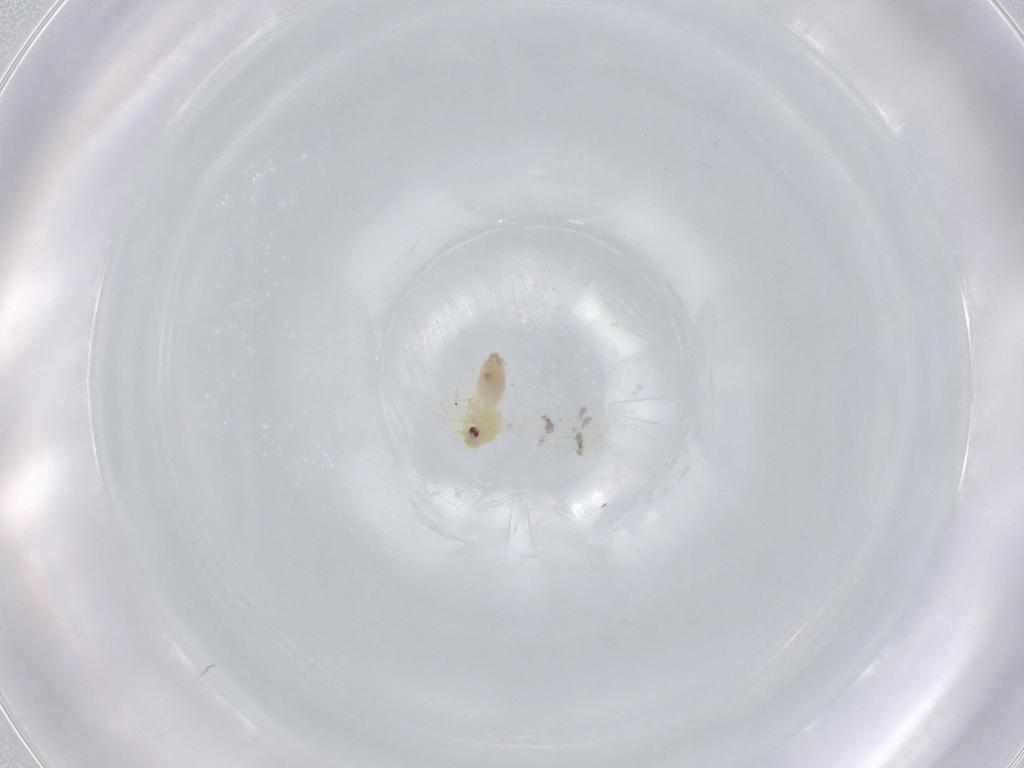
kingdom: Animalia
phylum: Arthropoda
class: Insecta
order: Hemiptera
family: Aleyrodidae
